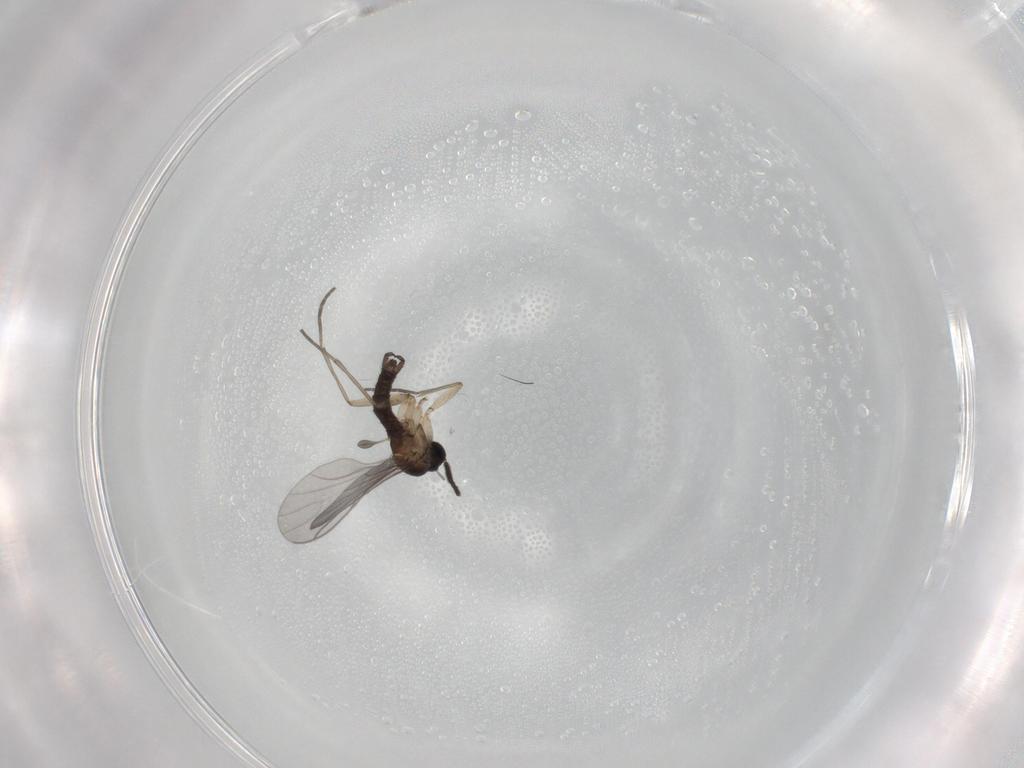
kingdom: Animalia
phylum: Arthropoda
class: Insecta
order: Diptera
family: Sciaridae
